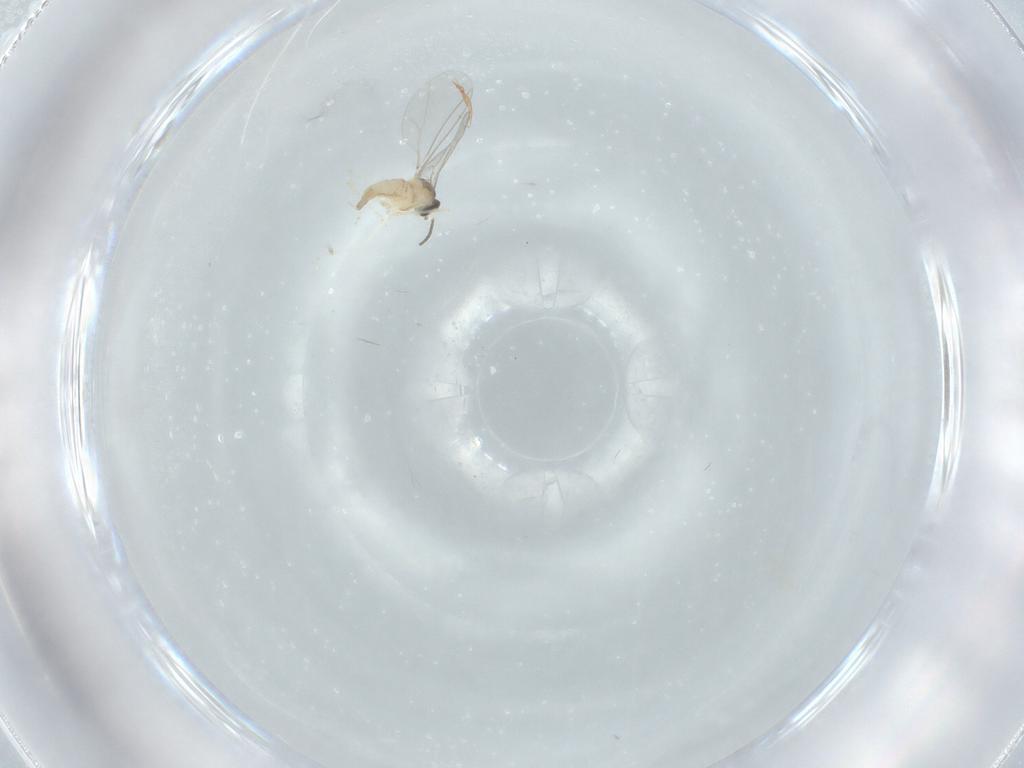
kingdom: Animalia
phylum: Arthropoda
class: Insecta
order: Diptera
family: Cecidomyiidae
